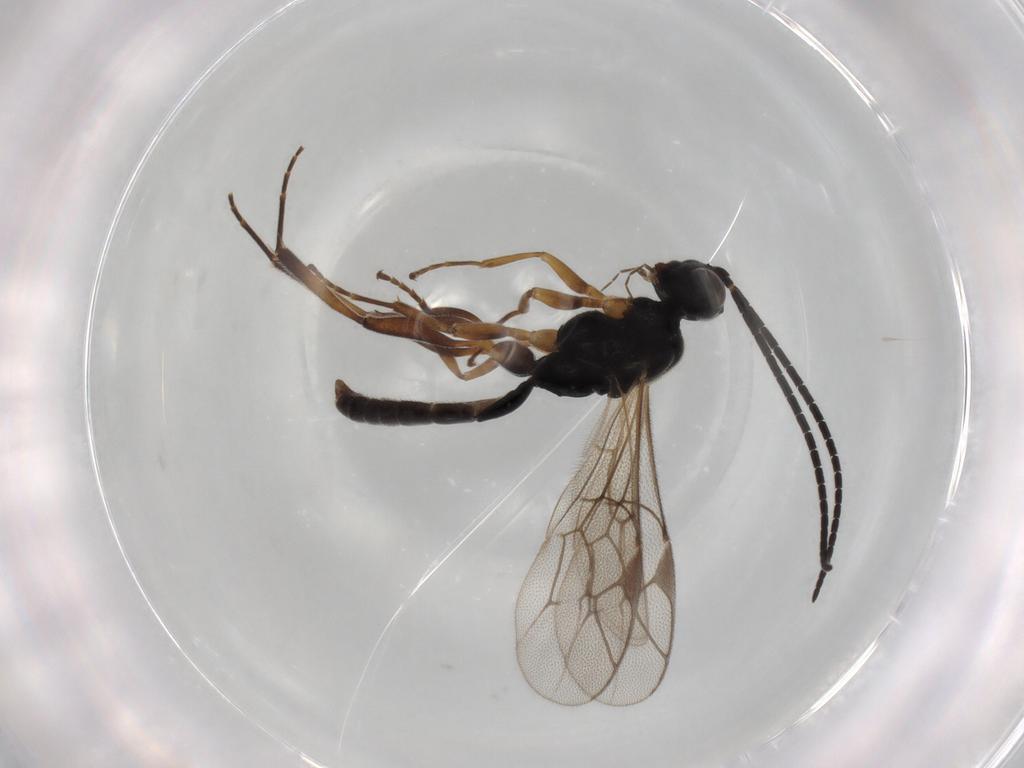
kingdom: Animalia
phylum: Arthropoda
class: Insecta
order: Hymenoptera
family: Ichneumonidae
